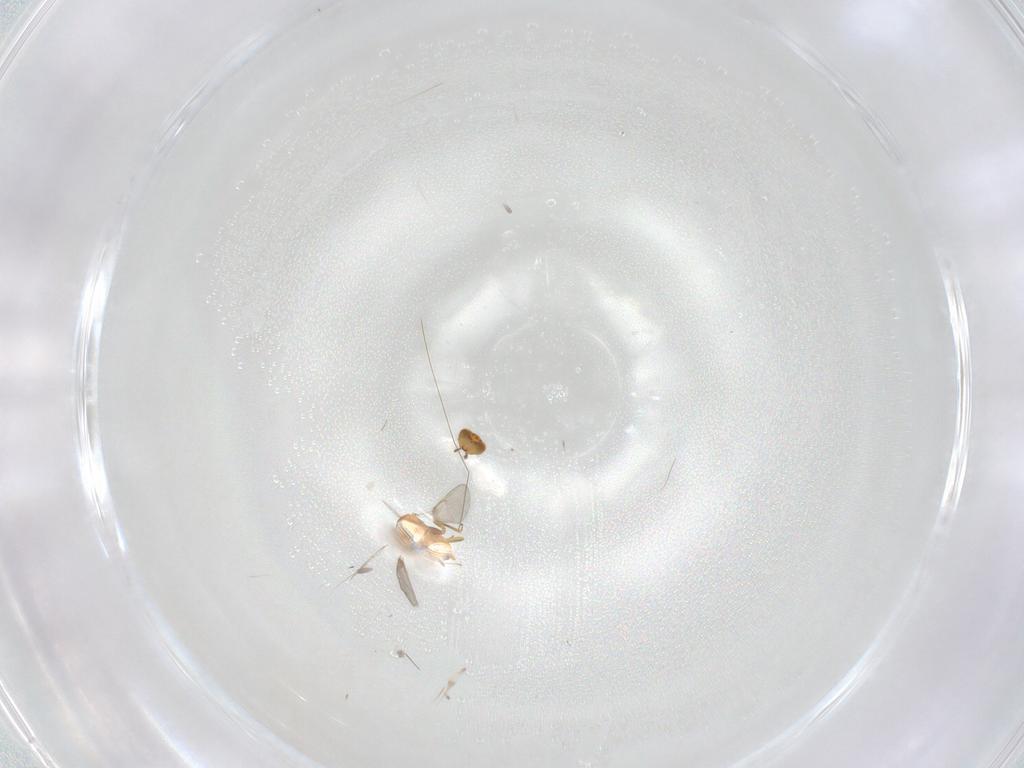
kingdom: Animalia
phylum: Arthropoda
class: Insecta
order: Hymenoptera
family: Aphelinidae
